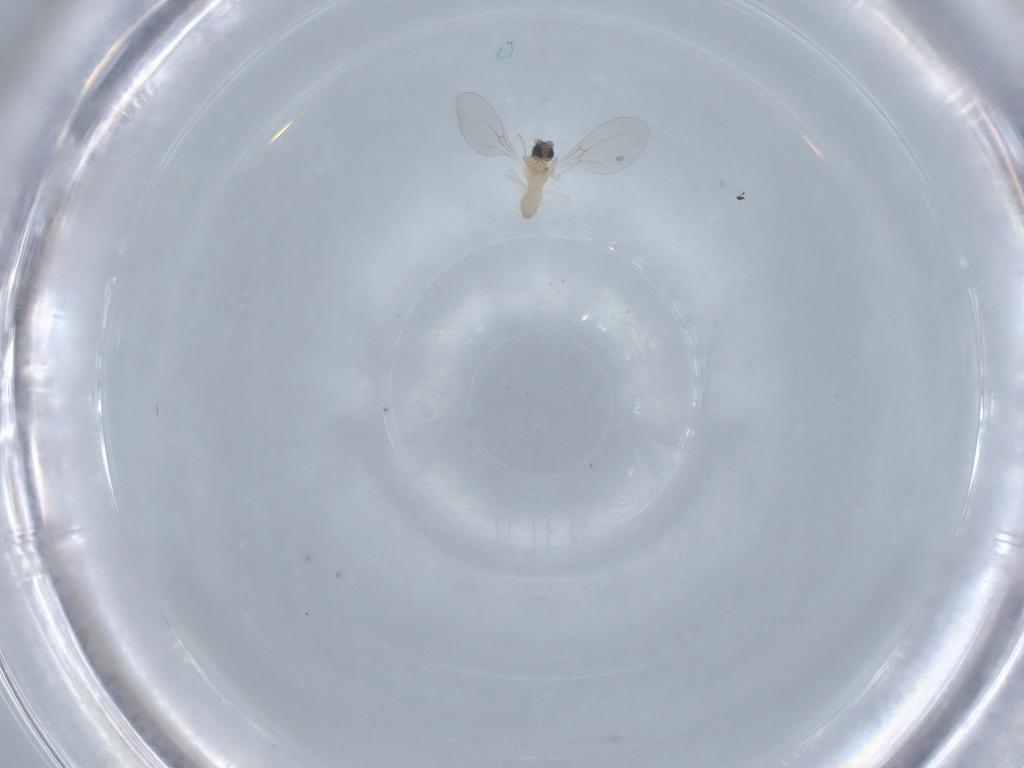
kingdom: Animalia
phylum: Arthropoda
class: Insecta
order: Diptera
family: Cecidomyiidae
